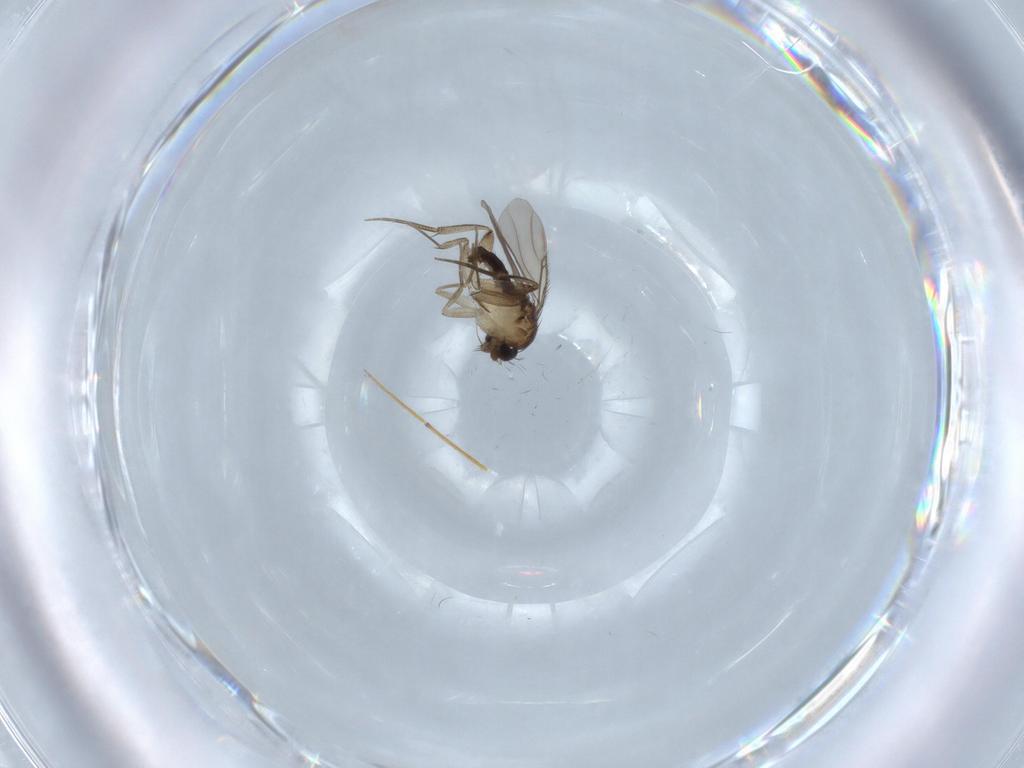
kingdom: Animalia
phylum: Arthropoda
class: Insecta
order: Diptera
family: Phoridae
